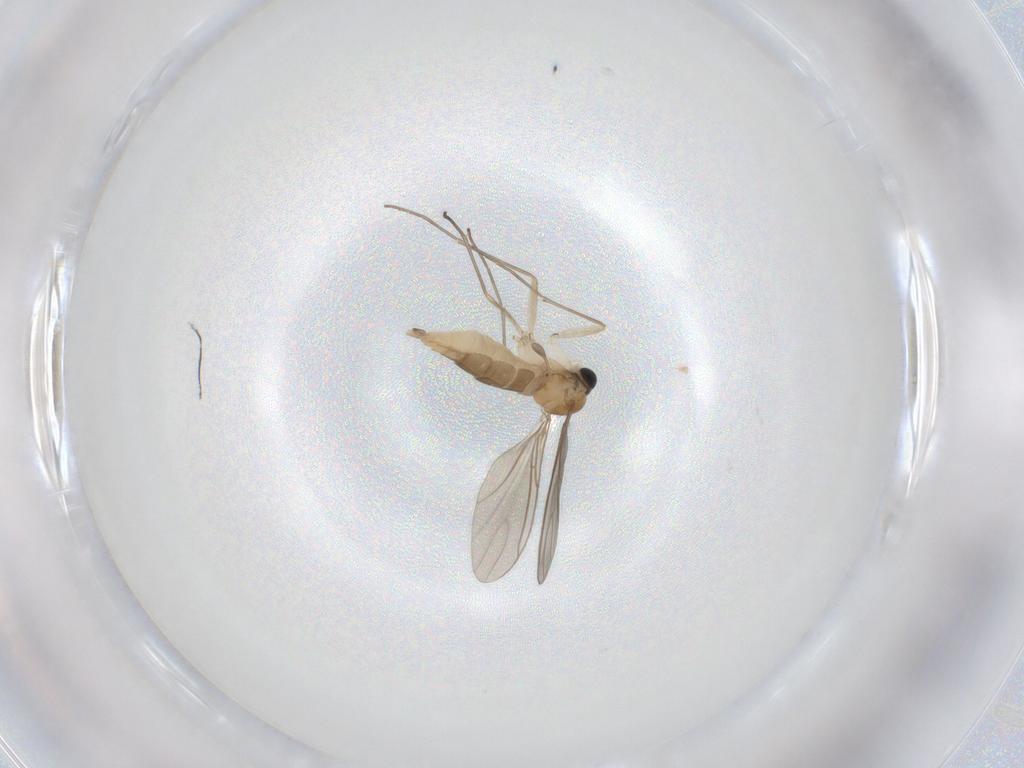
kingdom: Animalia
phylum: Arthropoda
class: Insecta
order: Diptera
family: Sciaridae
